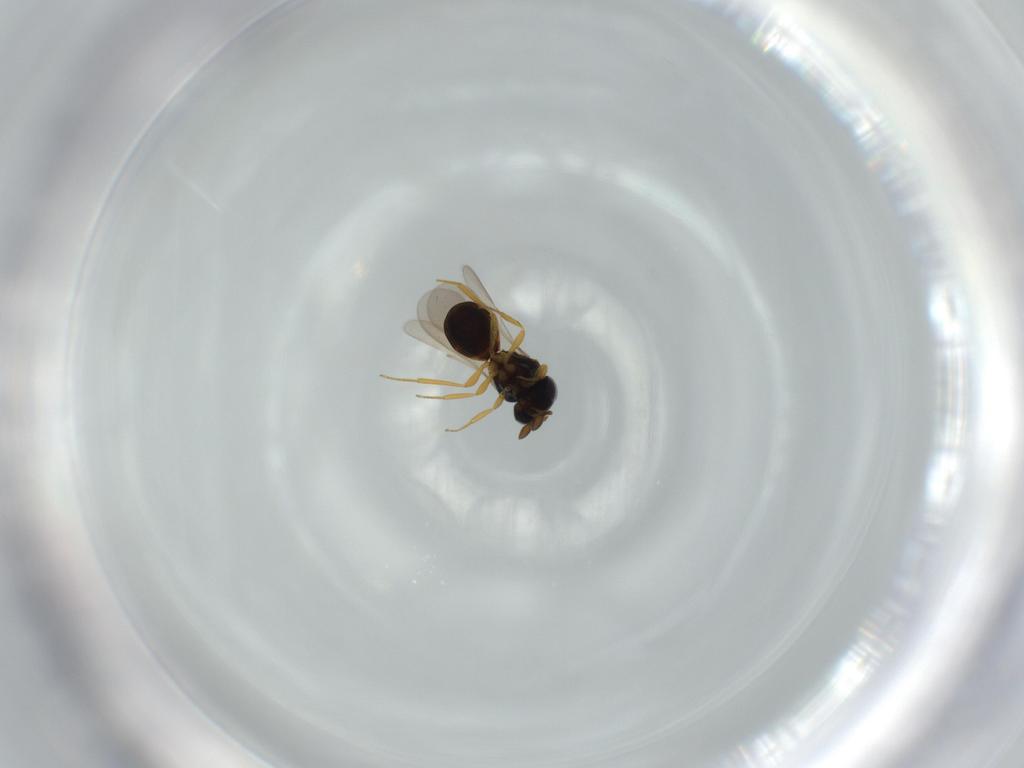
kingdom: Animalia
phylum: Arthropoda
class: Insecta
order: Hymenoptera
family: Scelionidae
